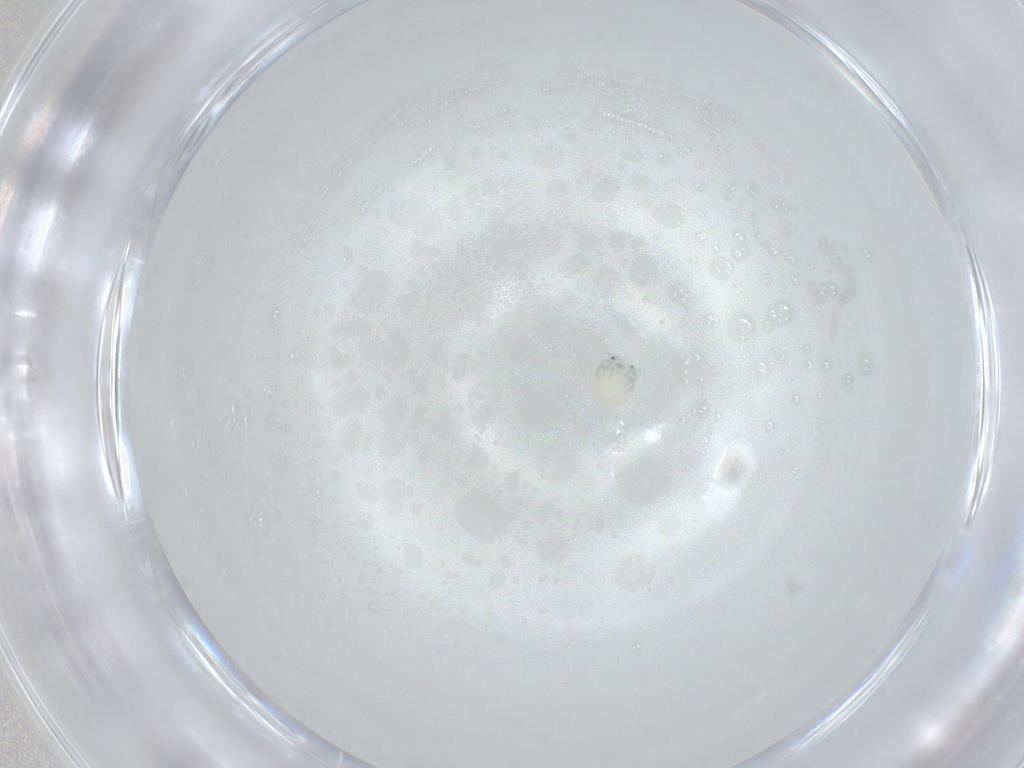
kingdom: Animalia
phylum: Arthropoda
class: Arachnida
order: Trombidiformes
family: Arrenuridae
